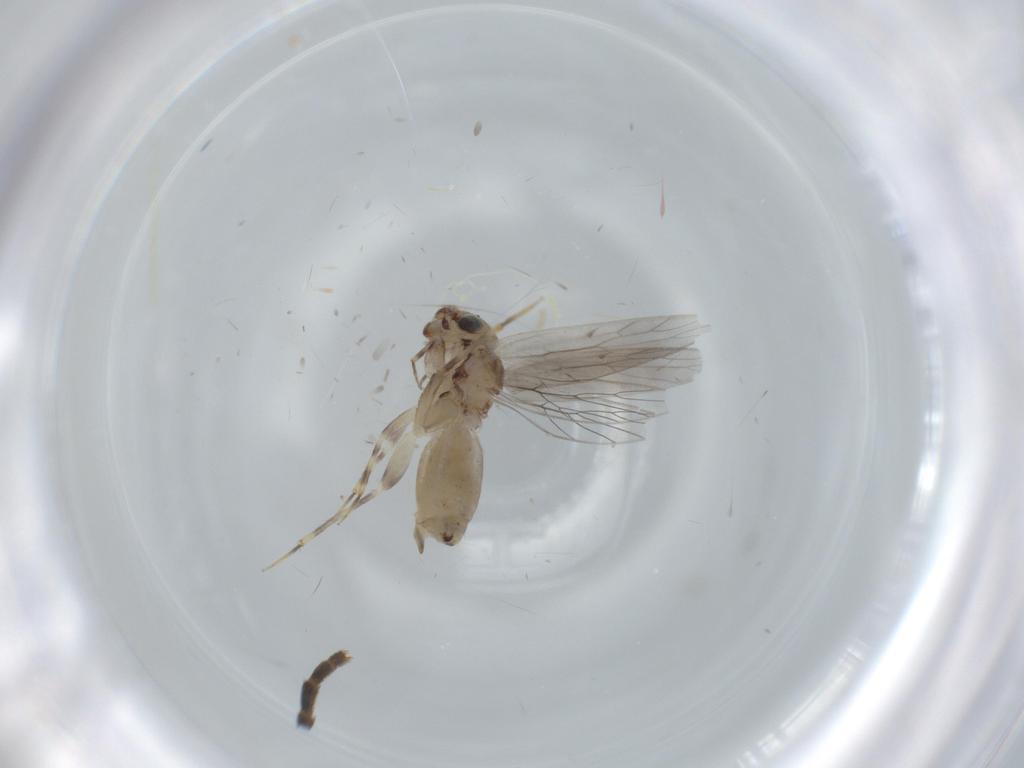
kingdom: Animalia
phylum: Arthropoda
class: Insecta
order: Psocodea
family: Lepidopsocidae
